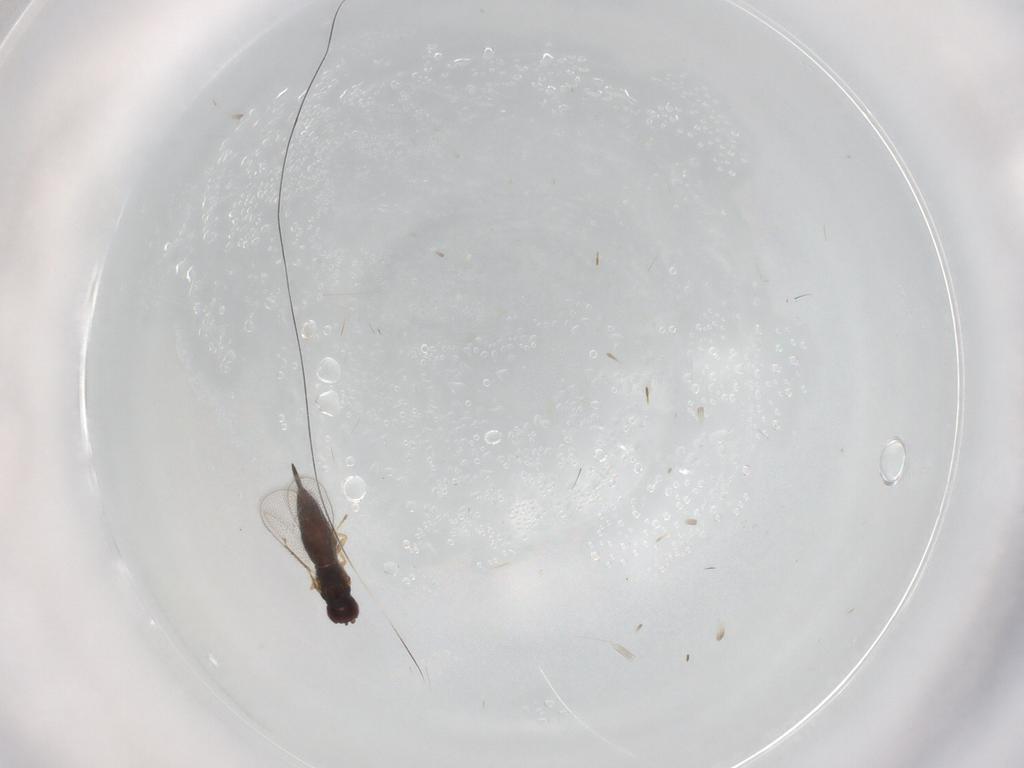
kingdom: Animalia
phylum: Arthropoda
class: Insecta
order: Hymenoptera
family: Eulophidae
